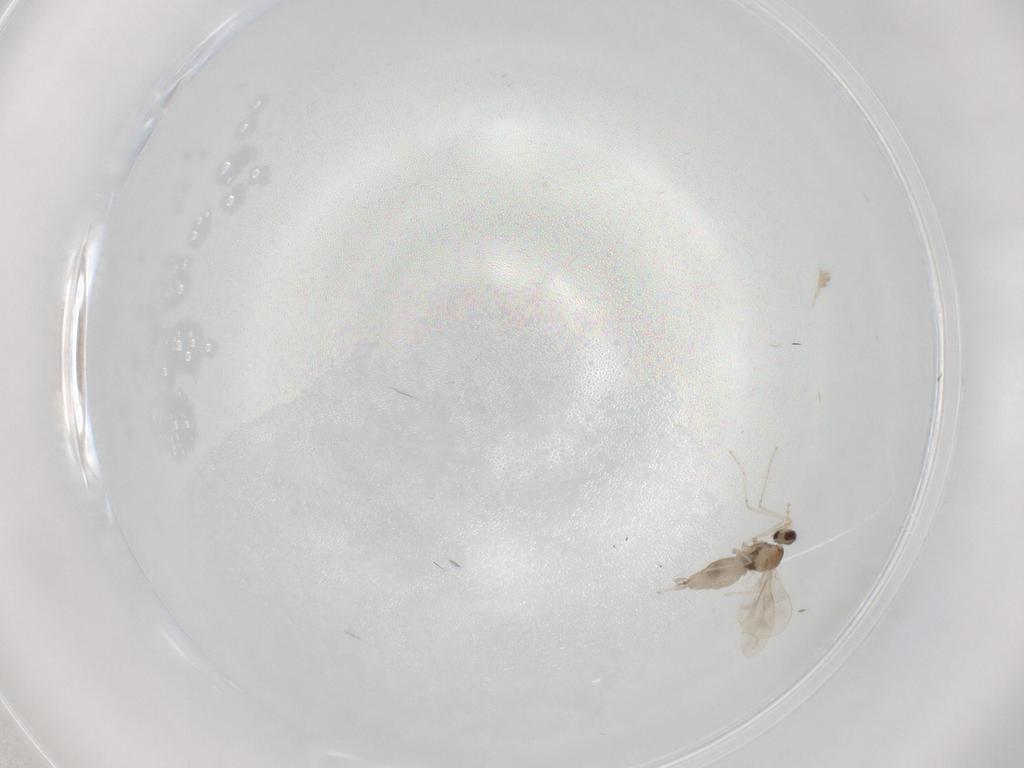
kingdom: Animalia
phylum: Arthropoda
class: Insecta
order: Diptera
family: Cecidomyiidae
